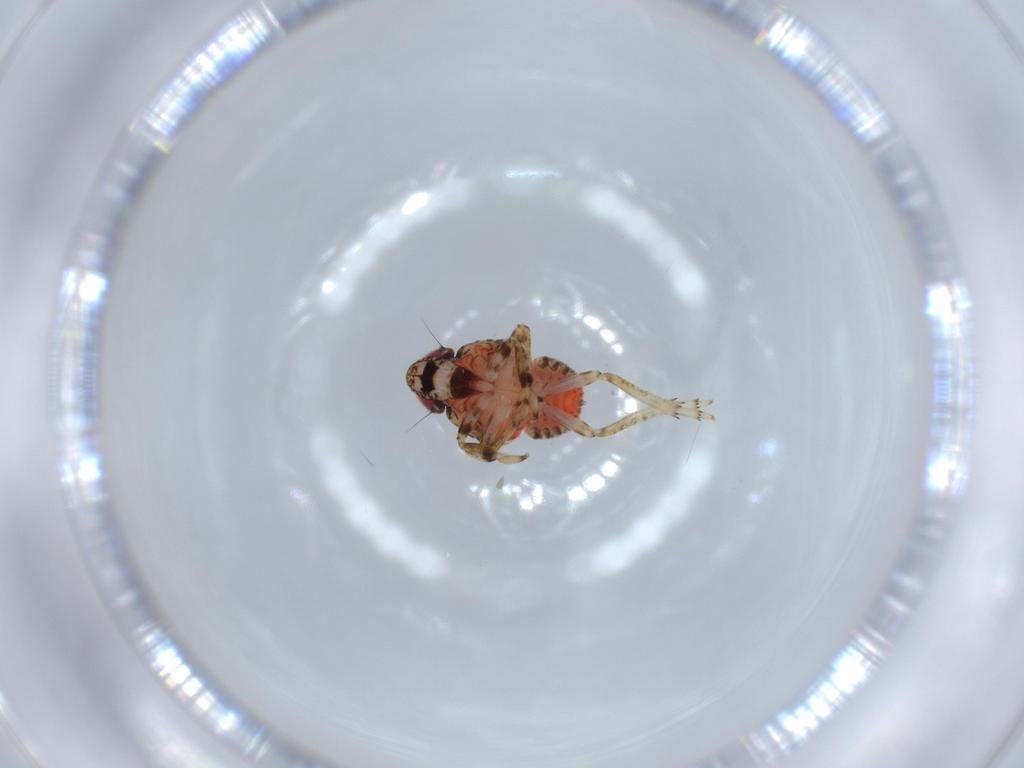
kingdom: Animalia
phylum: Arthropoda
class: Insecta
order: Hemiptera
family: Issidae
